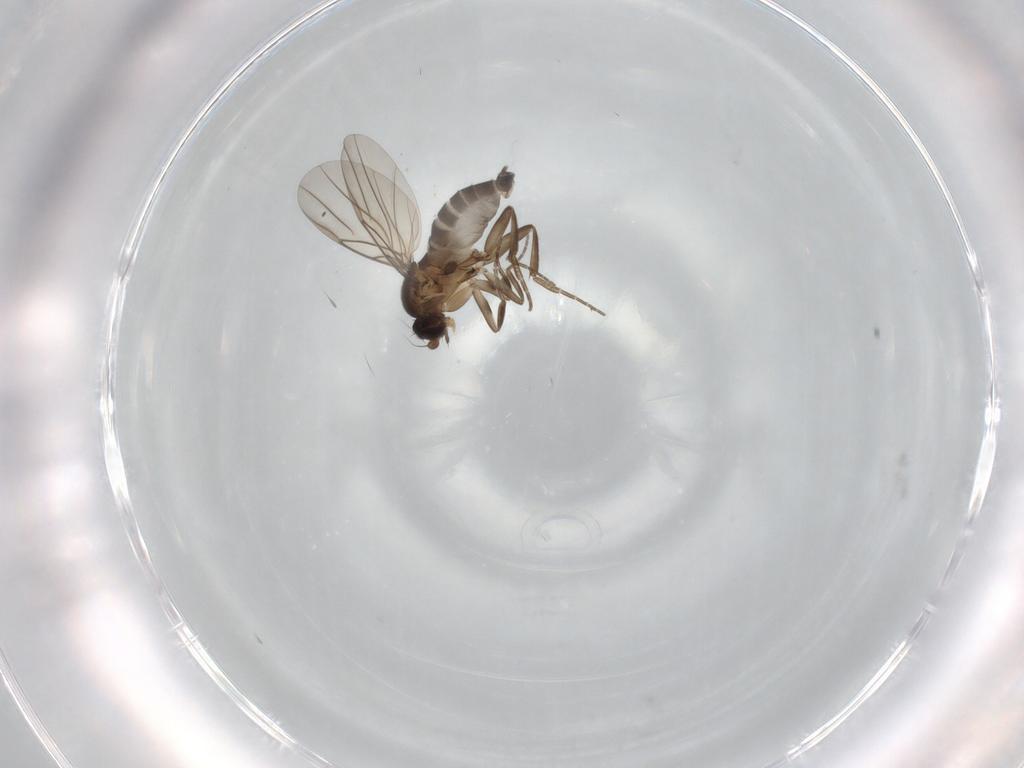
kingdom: Animalia
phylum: Arthropoda
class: Insecta
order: Diptera
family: Phoridae
